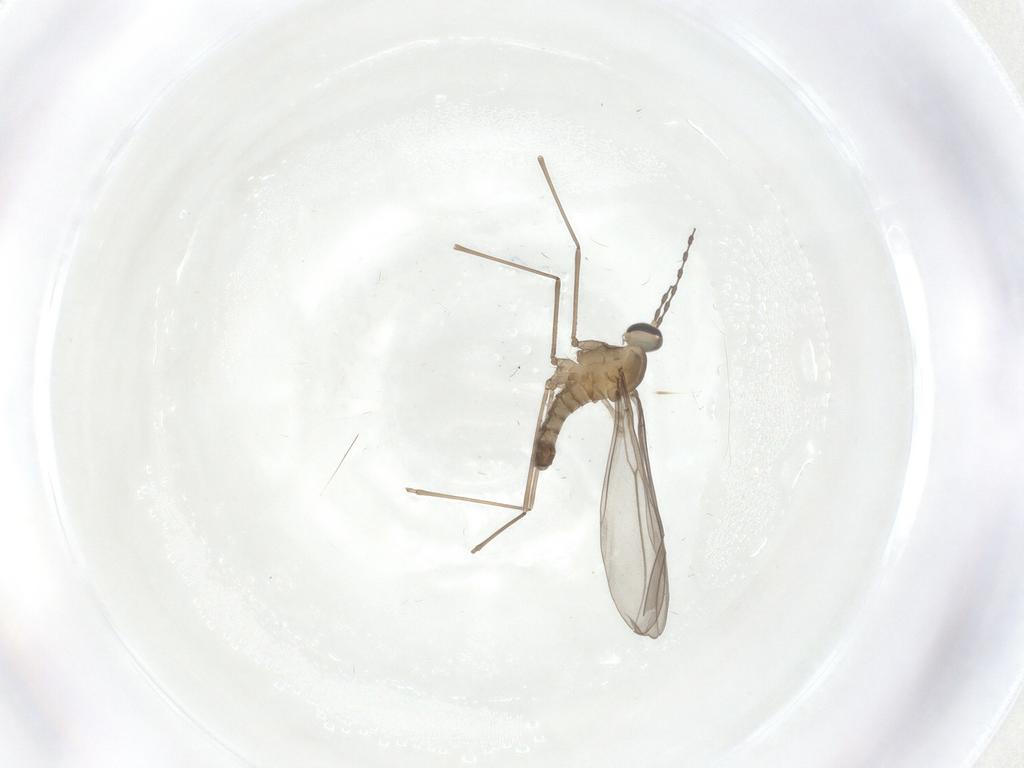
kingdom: Animalia
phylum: Arthropoda
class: Insecta
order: Diptera
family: Cecidomyiidae
